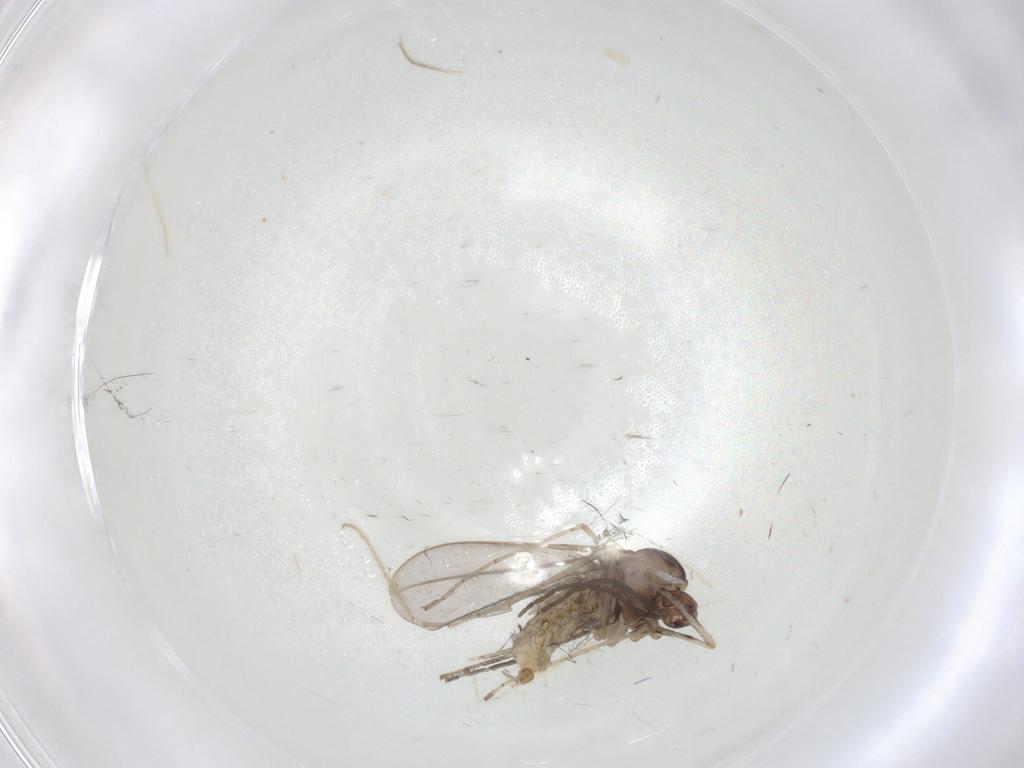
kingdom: Animalia
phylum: Arthropoda
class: Insecta
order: Diptera
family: Cecidomyiidae
